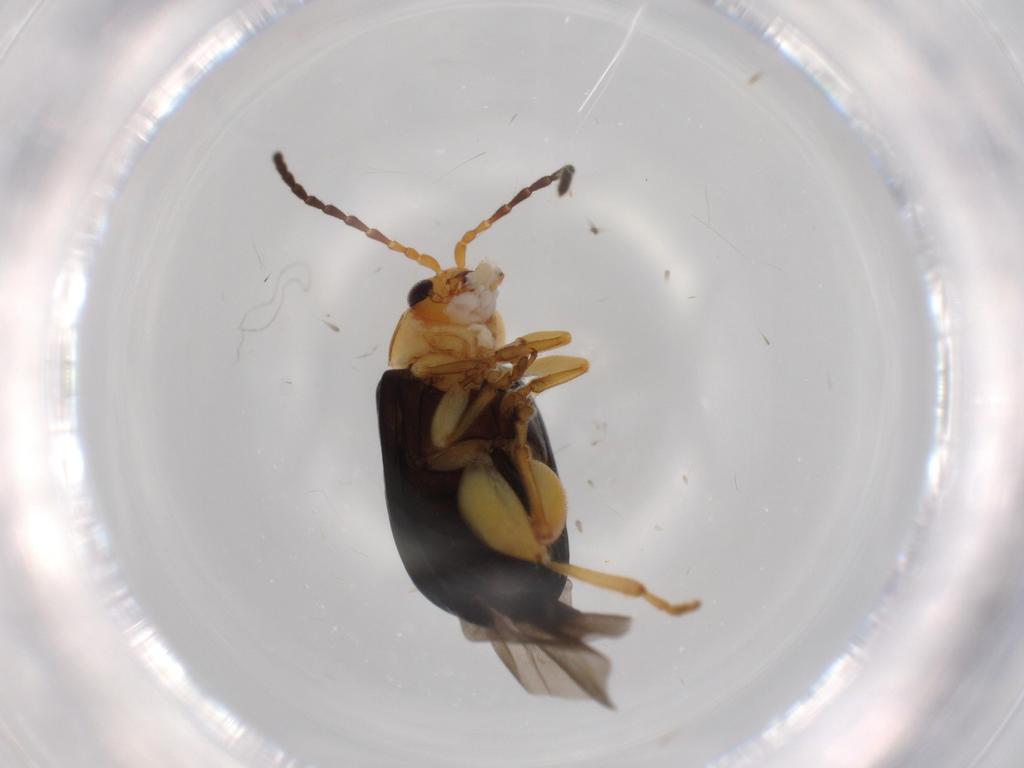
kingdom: Animalia
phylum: Arthropoda
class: Insecta
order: Coleoptera
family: Chrysomelidae
